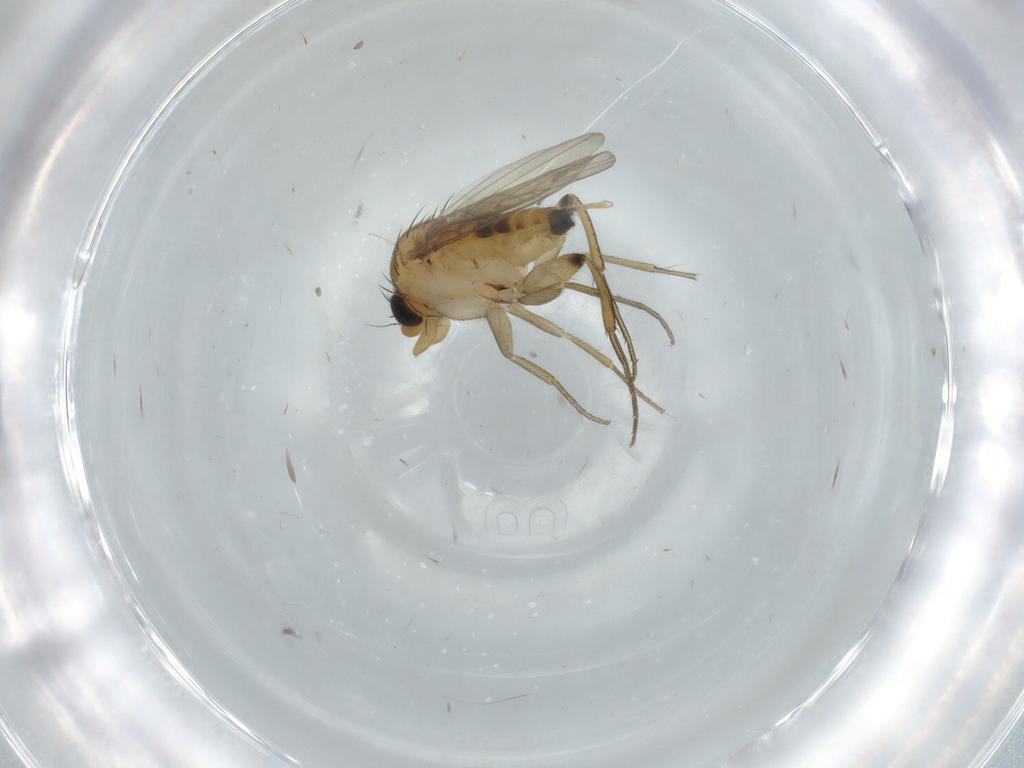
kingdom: Animalia
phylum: Arthropoda
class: Insecta
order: Diptera
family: Phoridae
